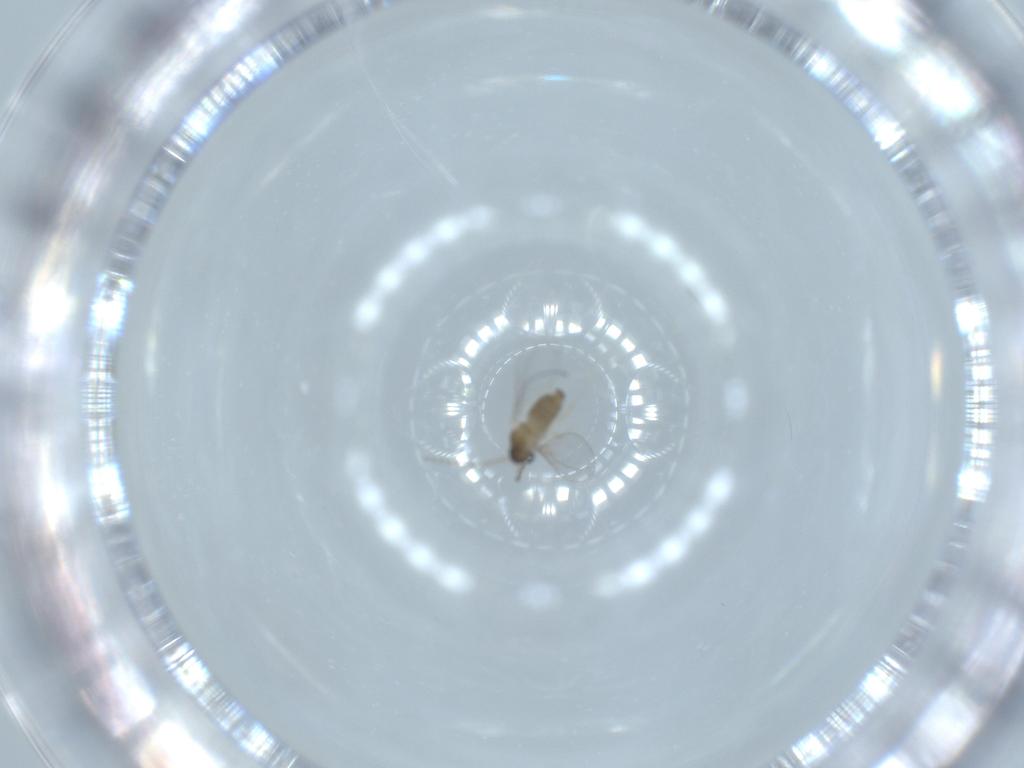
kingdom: Animalia
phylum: Arthropoda
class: Insecta
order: Diptera
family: Cecidomyiidae
